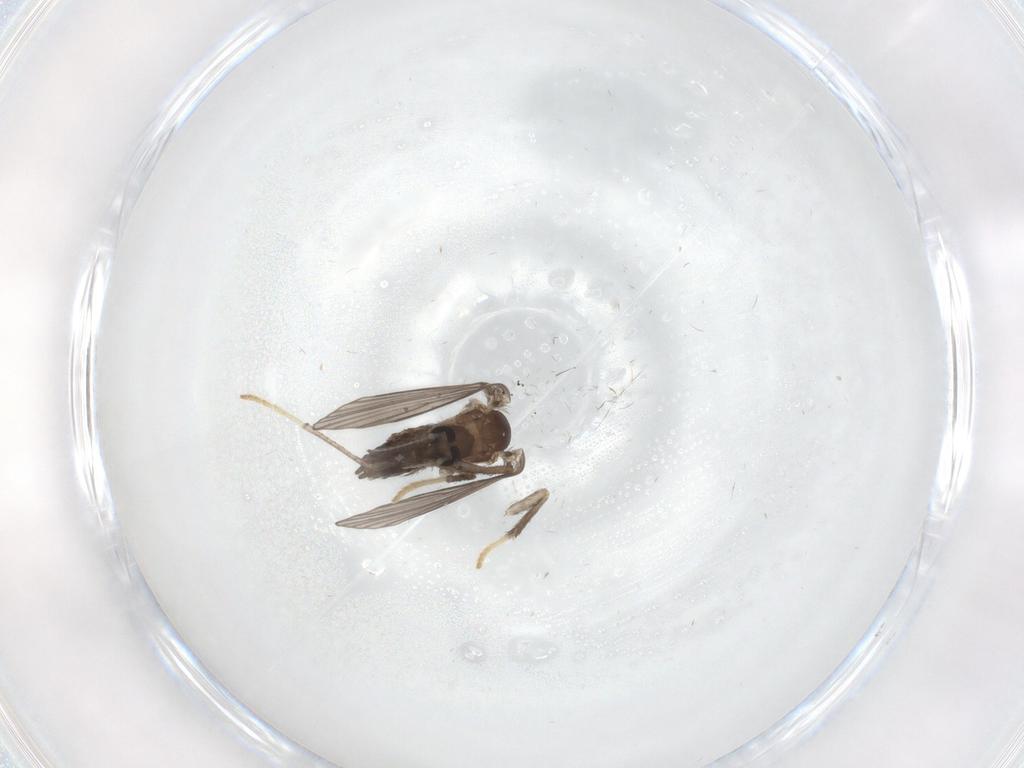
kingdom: Animalia
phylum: Arthropoda
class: Insecta
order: Diptera
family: Sciaridae
